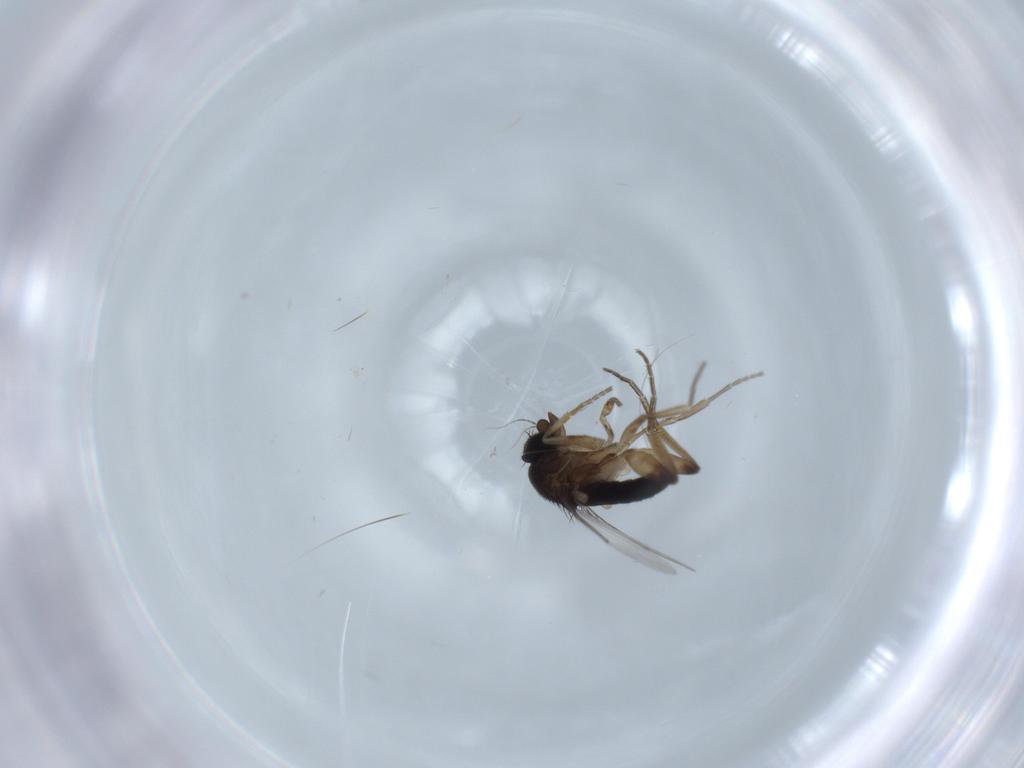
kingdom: Animalia
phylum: Arthropoda
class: Insecta
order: Diptera
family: Phoridae
